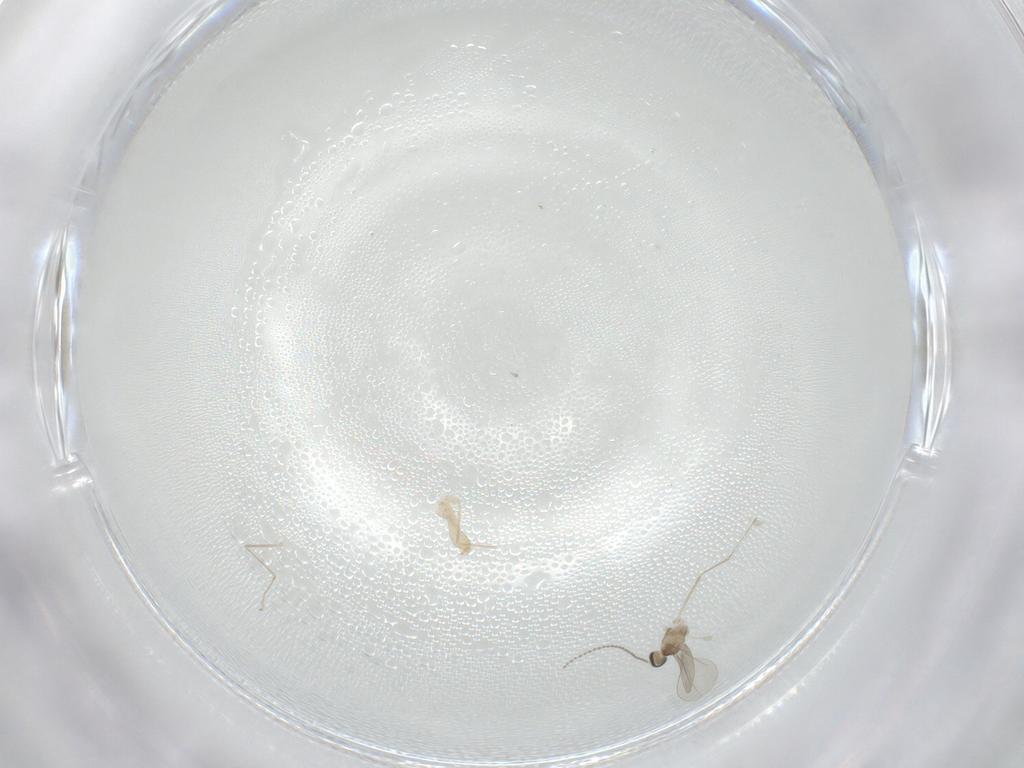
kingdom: Animalia
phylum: Arthropoda
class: Insecta
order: Diptera
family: Cecidomyiidae
